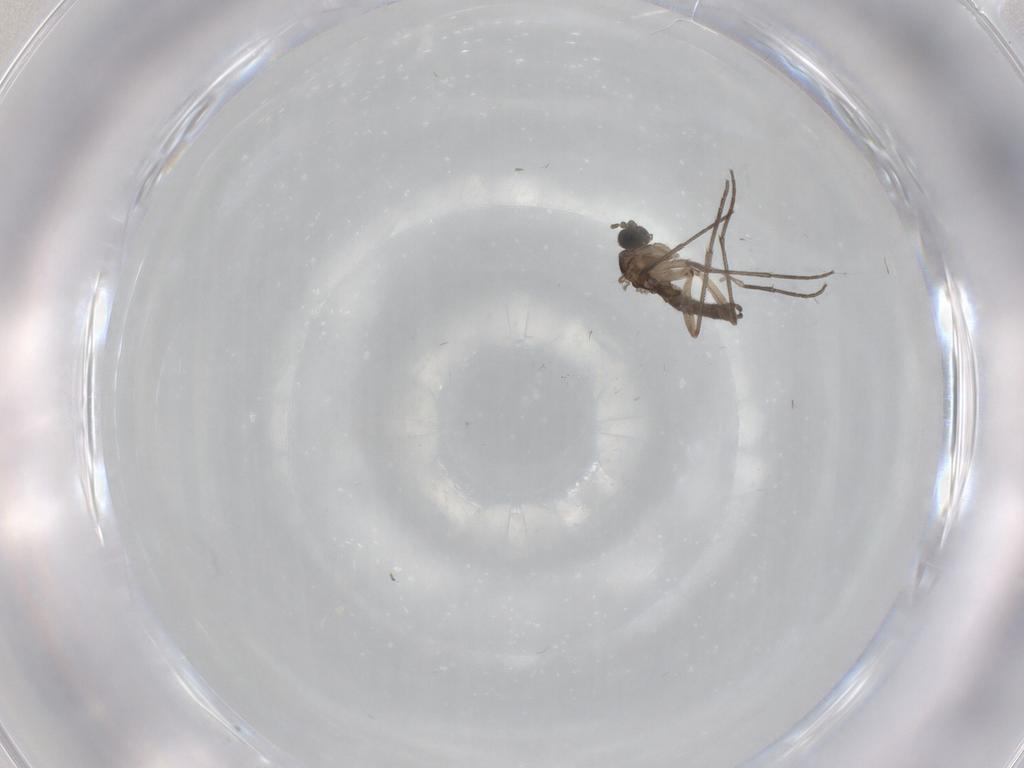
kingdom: Animalia
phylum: Arthropoda
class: Insecta
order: Diptera
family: Sciaridae
